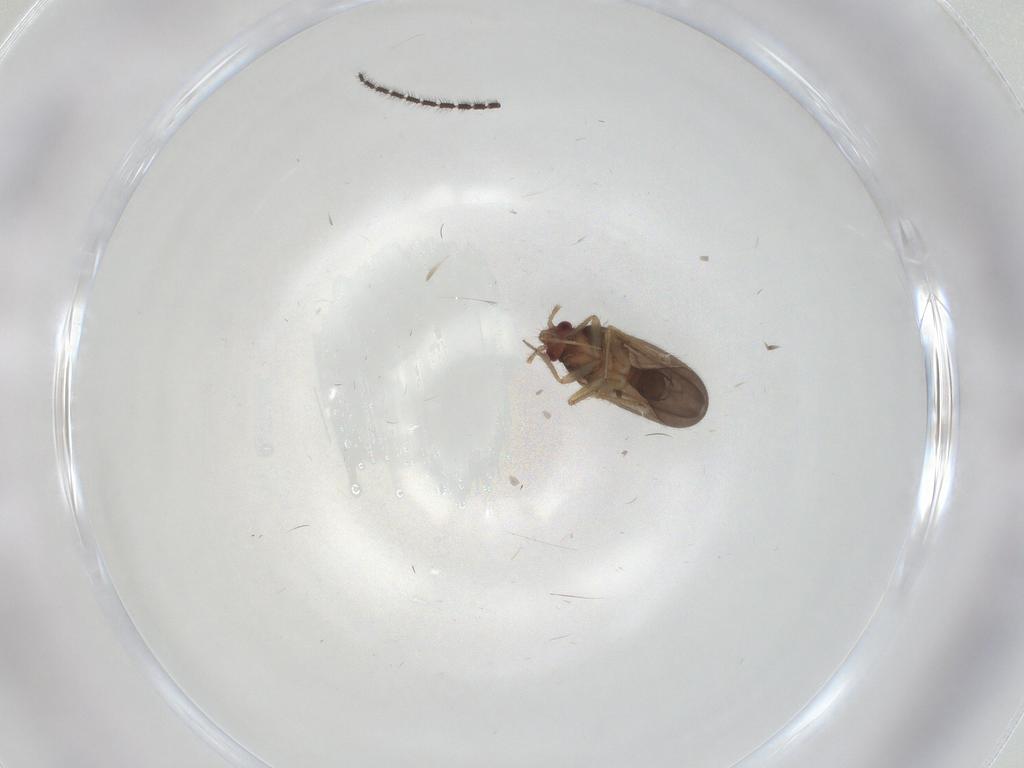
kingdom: Animalia
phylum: Arthropoda
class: Insecta
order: Hemiptera
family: Ceratocombidae
